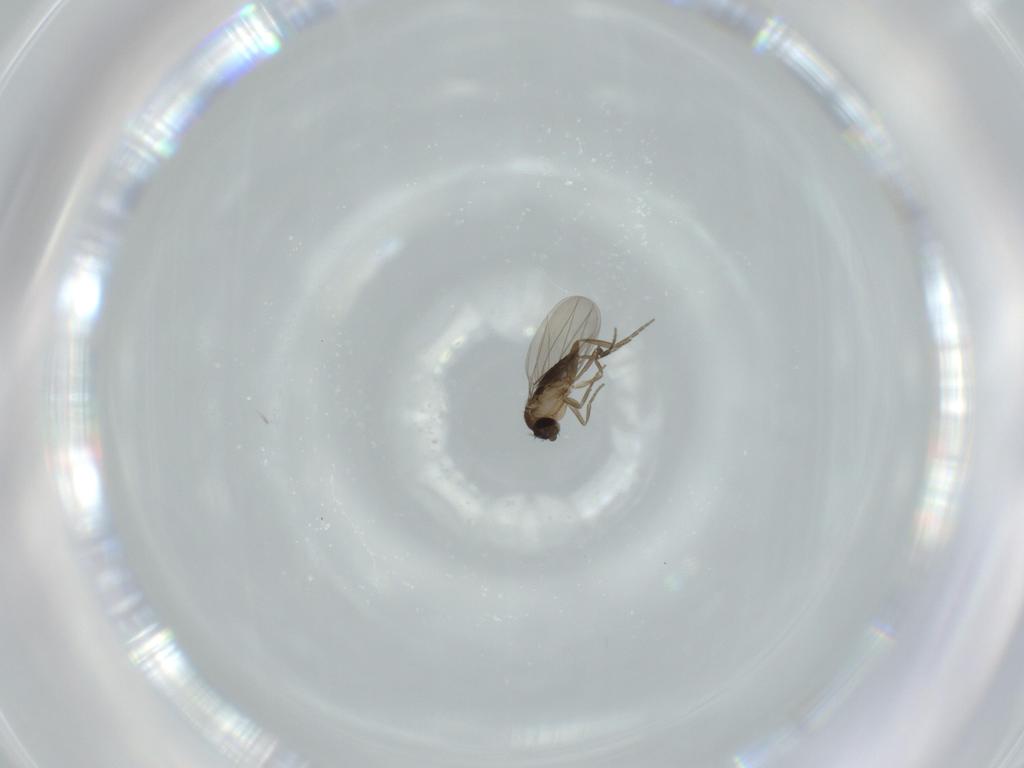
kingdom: Animalia
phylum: Arthropoda
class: Insecta
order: Diptera
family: Phoridae
